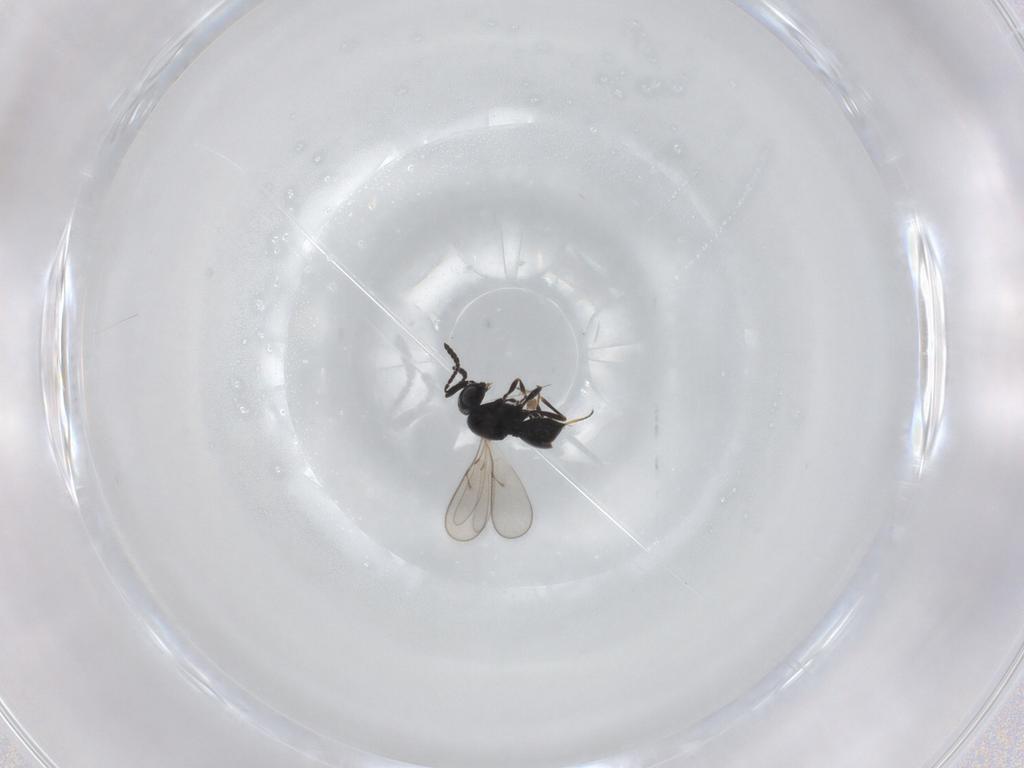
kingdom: Animalia
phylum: Arthropoda
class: Insecta
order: Hymenoptera
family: Scelionidae
